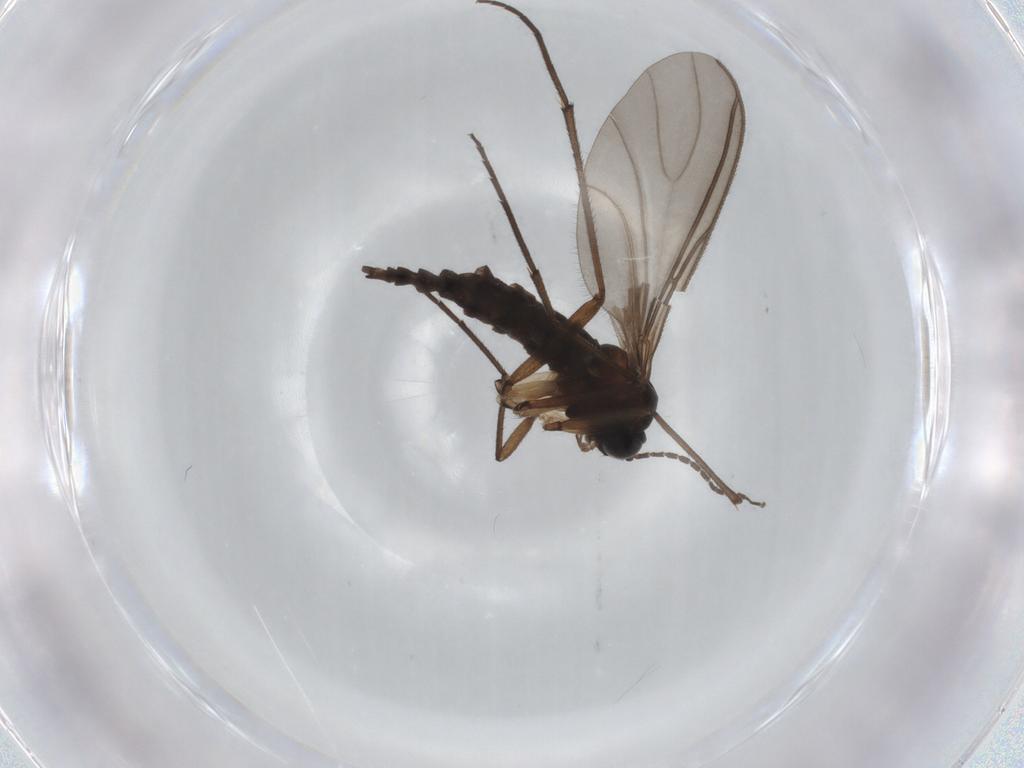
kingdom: Animalia
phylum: Arthropoda
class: Insecta
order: Diptera
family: Sciaridae
